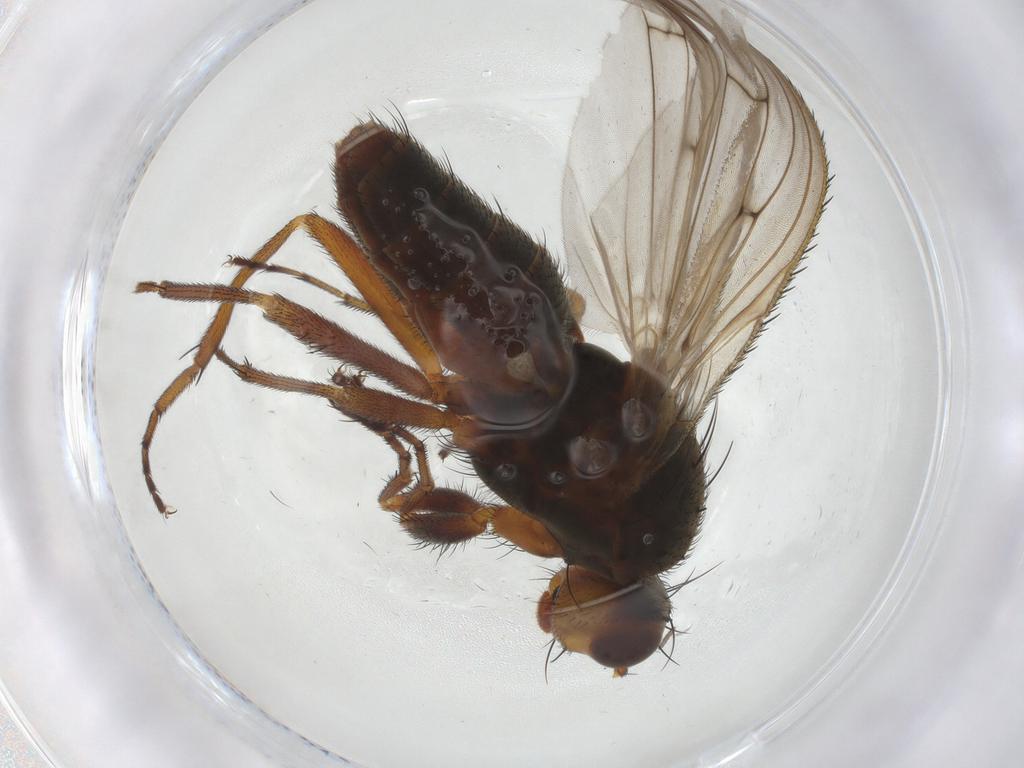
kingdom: Animalia
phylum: Arthropoda
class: Insecta
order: Diptera
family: Heleomyzidae
